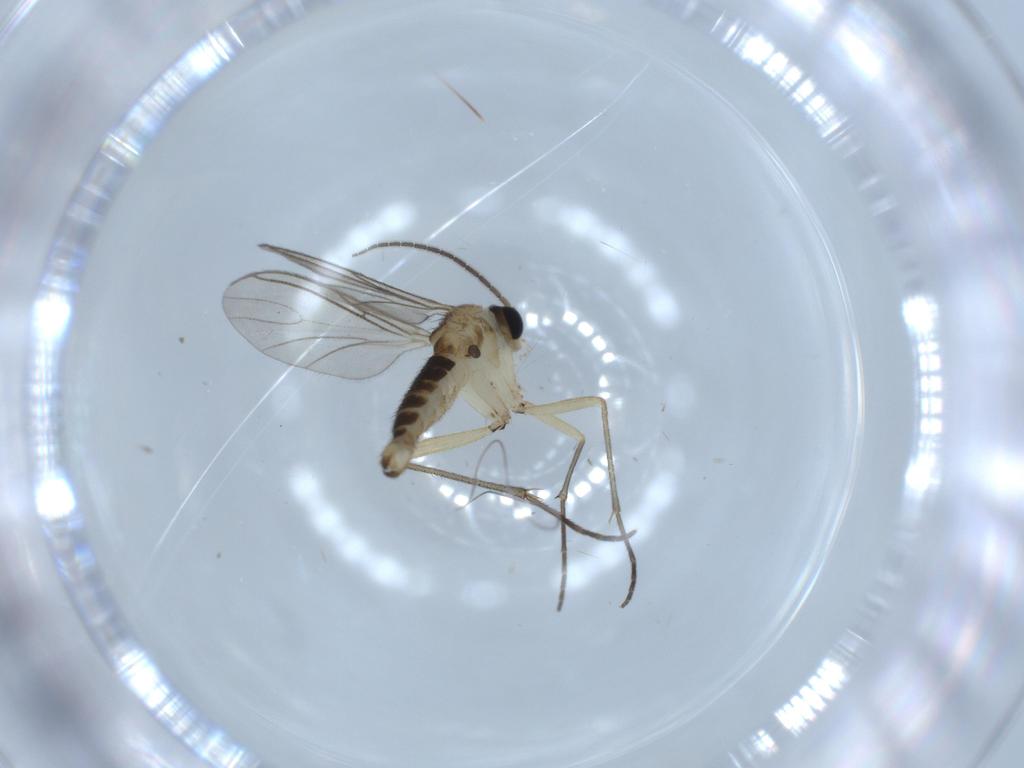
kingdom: Animalia
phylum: Arthropoda
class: Insecta
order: Diptera
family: Sciaridae
